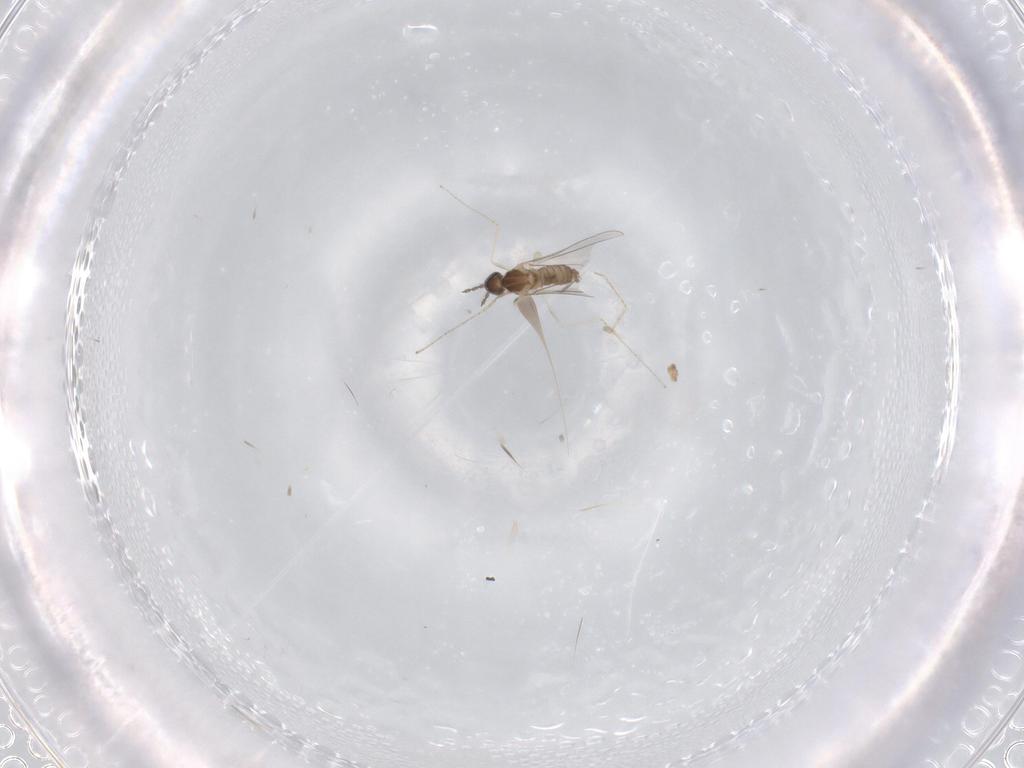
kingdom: Animalia
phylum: Arthropoda
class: Insecta
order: Diptera
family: Cecidomyiidae
